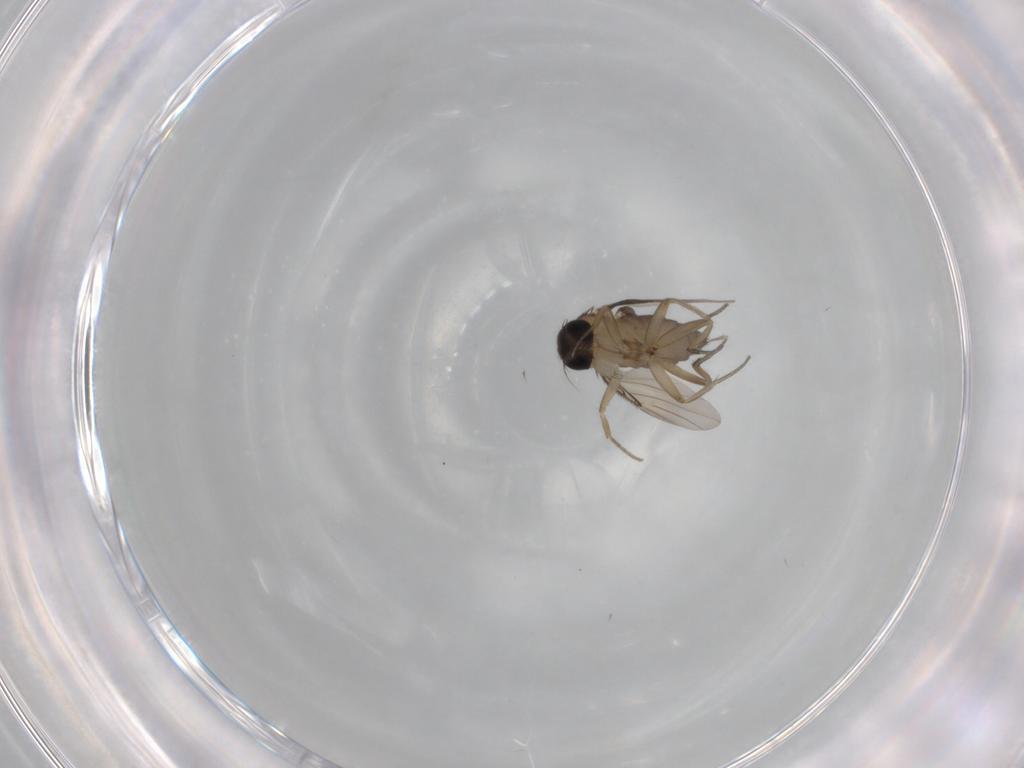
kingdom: Animalia
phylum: Arthropoda
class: Insecta
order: Diptera
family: Phoridae
